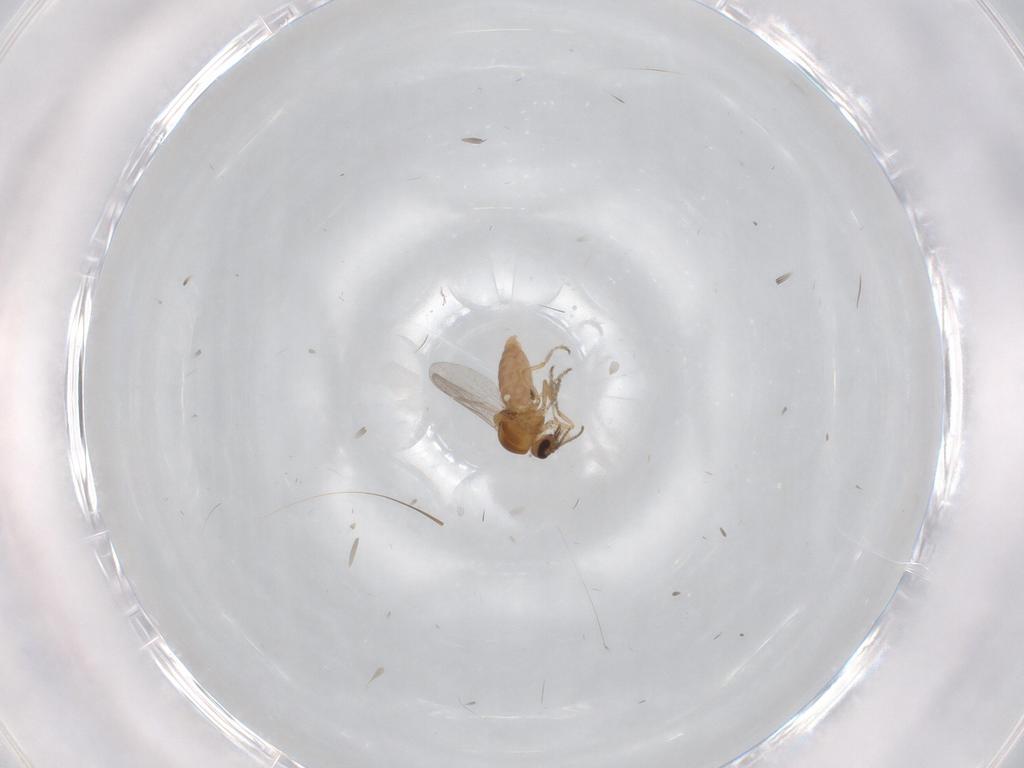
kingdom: Animalia
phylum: Arthropoda
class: Insecta
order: Diptera
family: Ceratopogonidae
